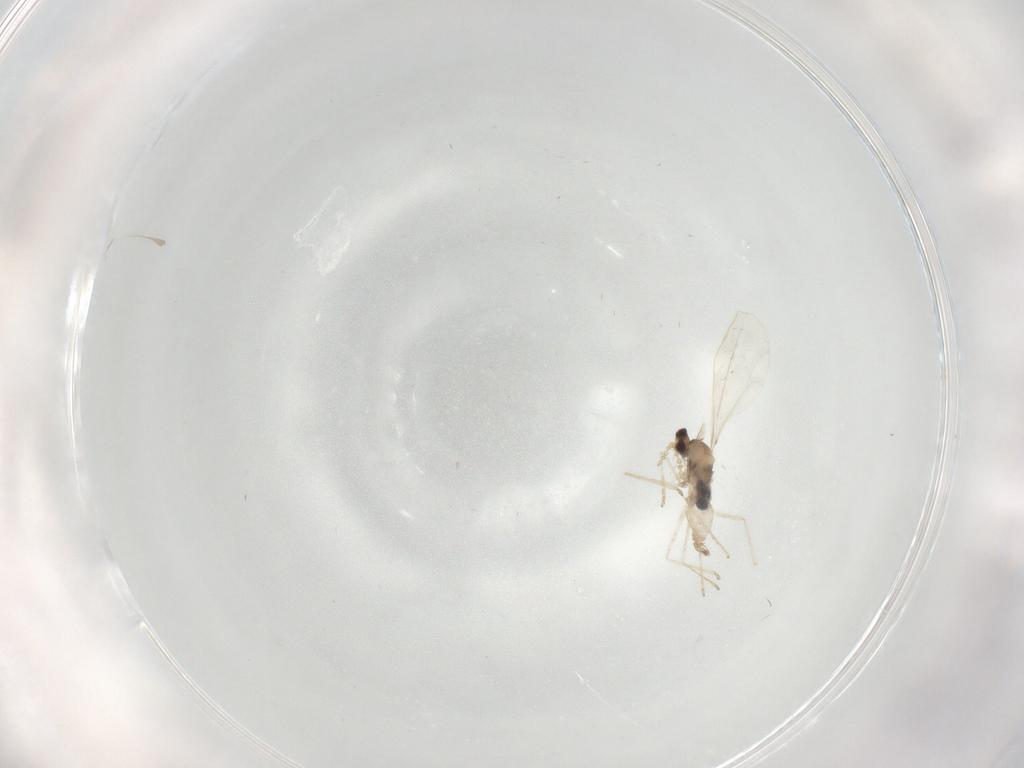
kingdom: Animalia
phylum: Arthropoda
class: Insecta
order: Diptera
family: Cecidomyiidae
